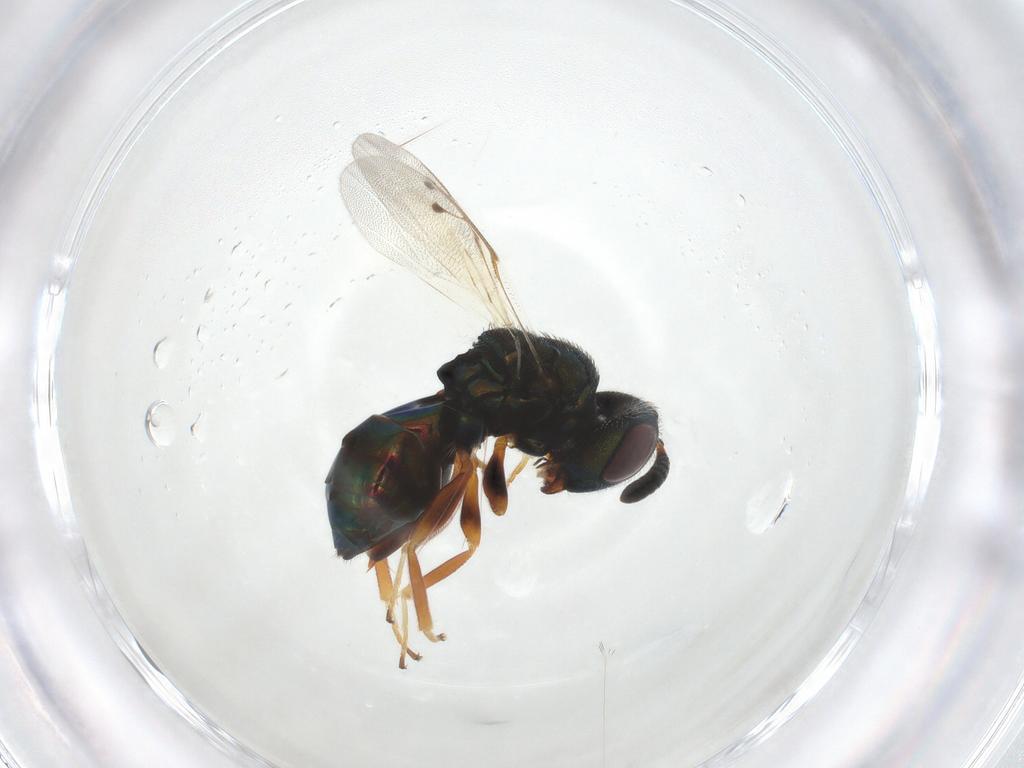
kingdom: Animalia
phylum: Arthropoda
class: Insecta
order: Hymenoptera
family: Pteromalidae
